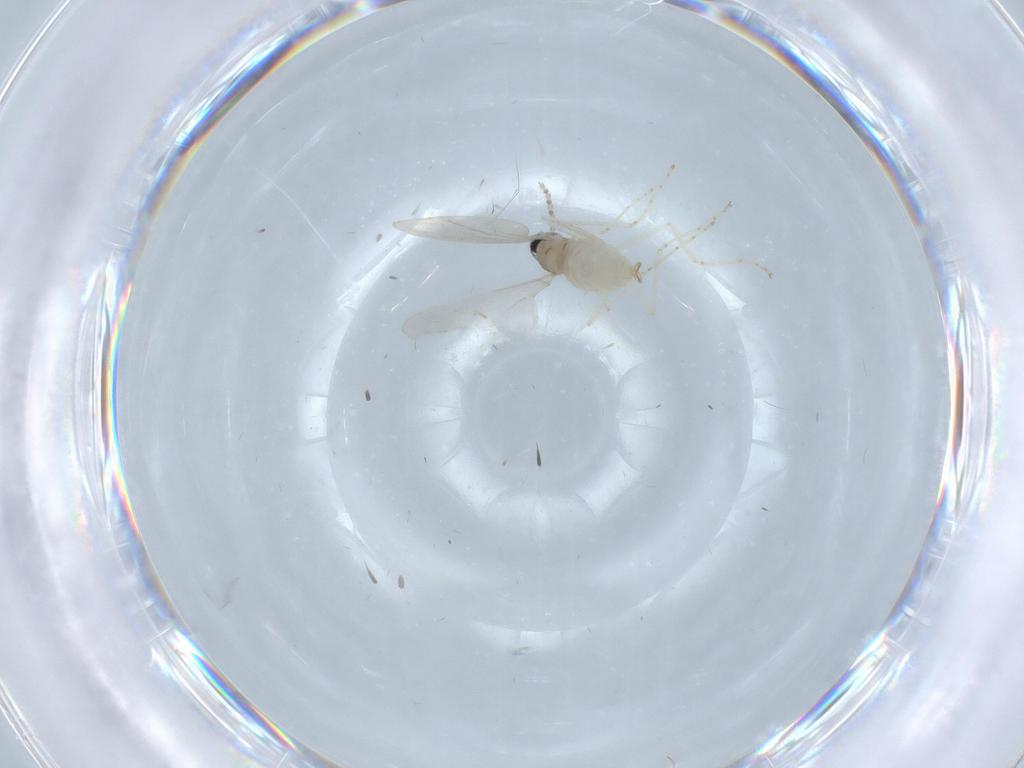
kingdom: Animalia
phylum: Arthropoda
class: Insecta
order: Diptera
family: Cecidomyiidae
